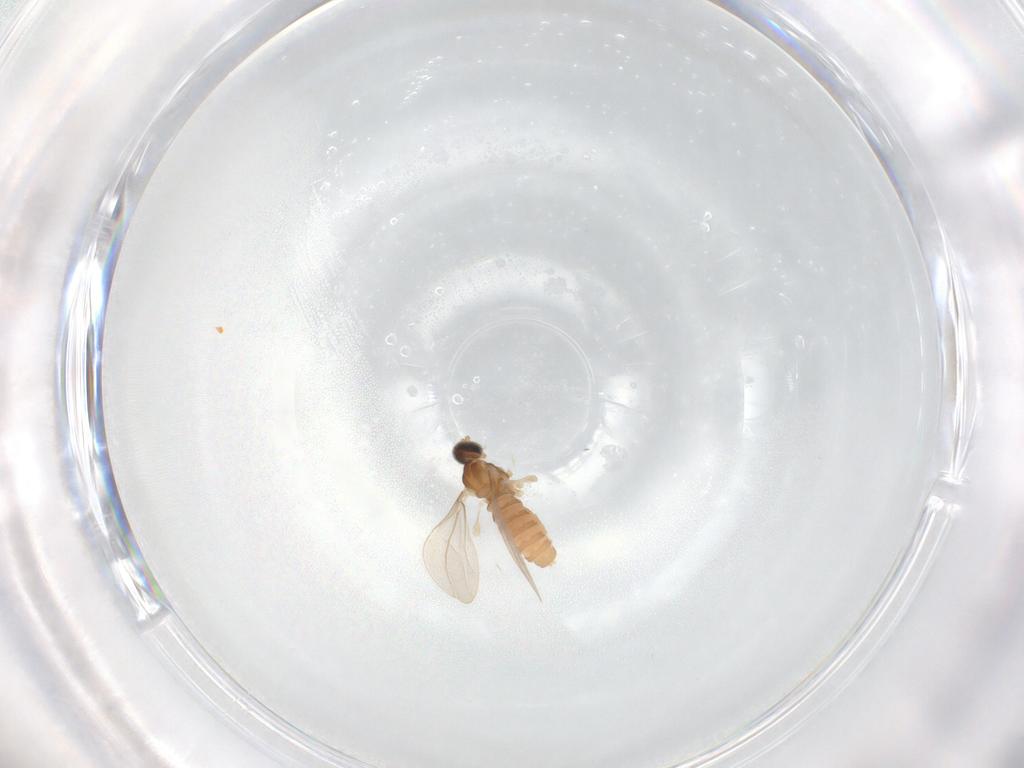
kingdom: Animalia
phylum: Arthropoda
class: Insecta
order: Diptera
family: Cecidomyiidae
